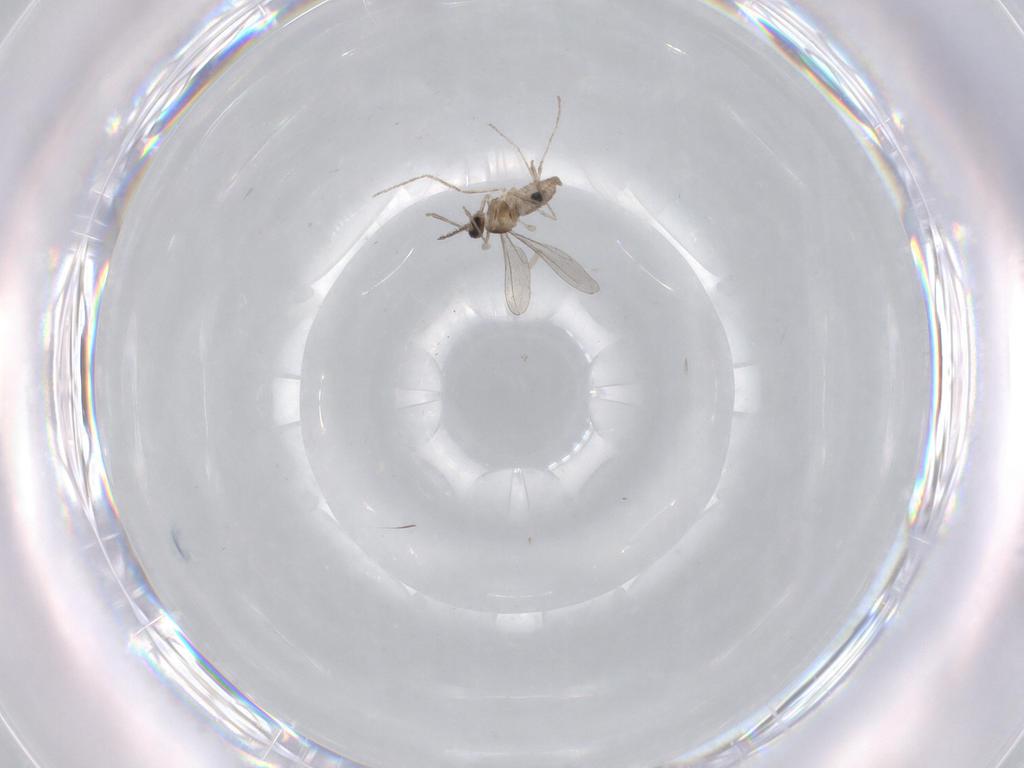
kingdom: Animalia
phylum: Arthropoda
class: Insecta
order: Diptera
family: Chironomidae
